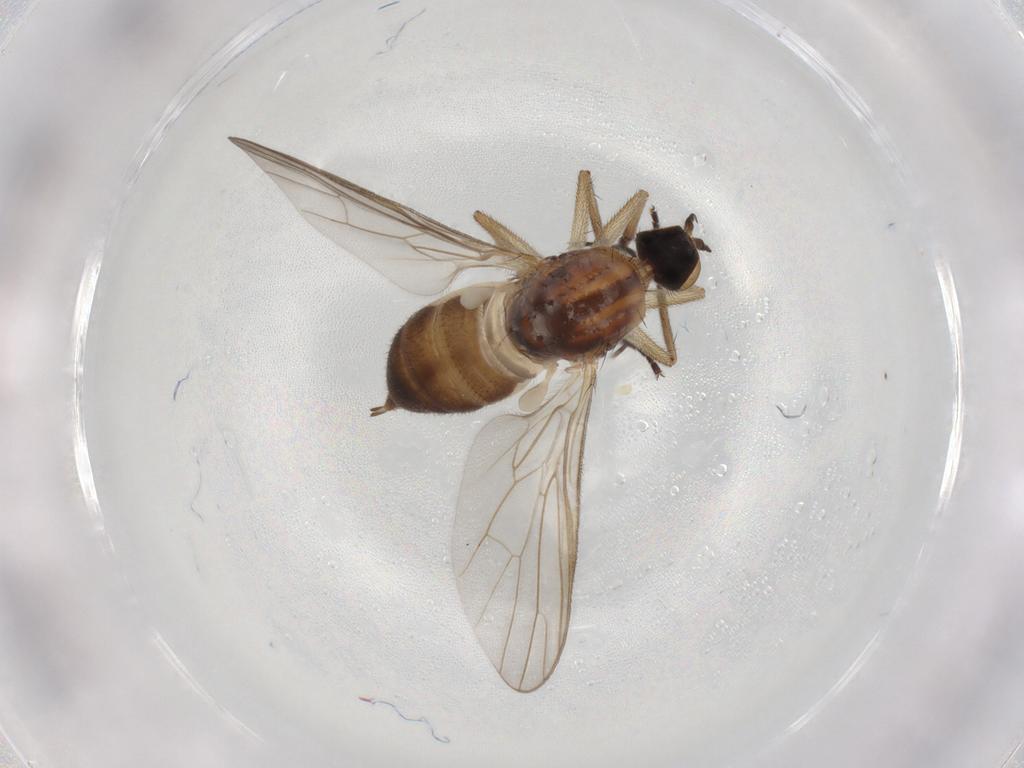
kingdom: Animalia
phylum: Arthropoda
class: Insecta
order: Diptera
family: Empididae
